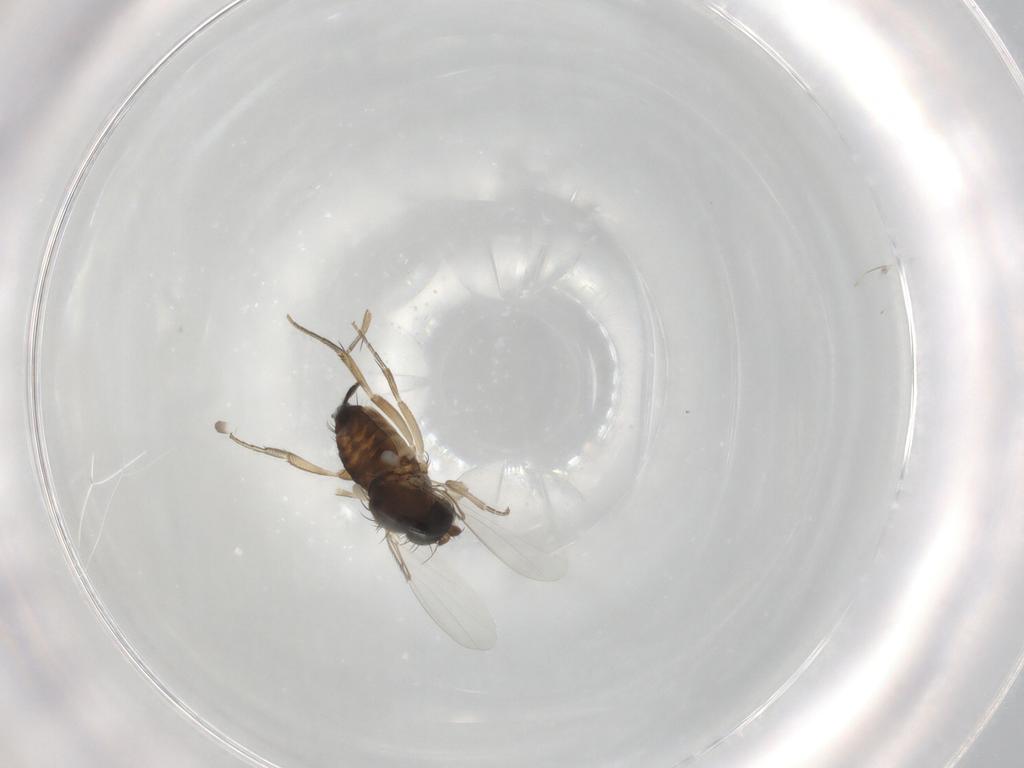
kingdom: Animalia
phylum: Arthropoda
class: Insecta
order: Diptera
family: Phoridae
